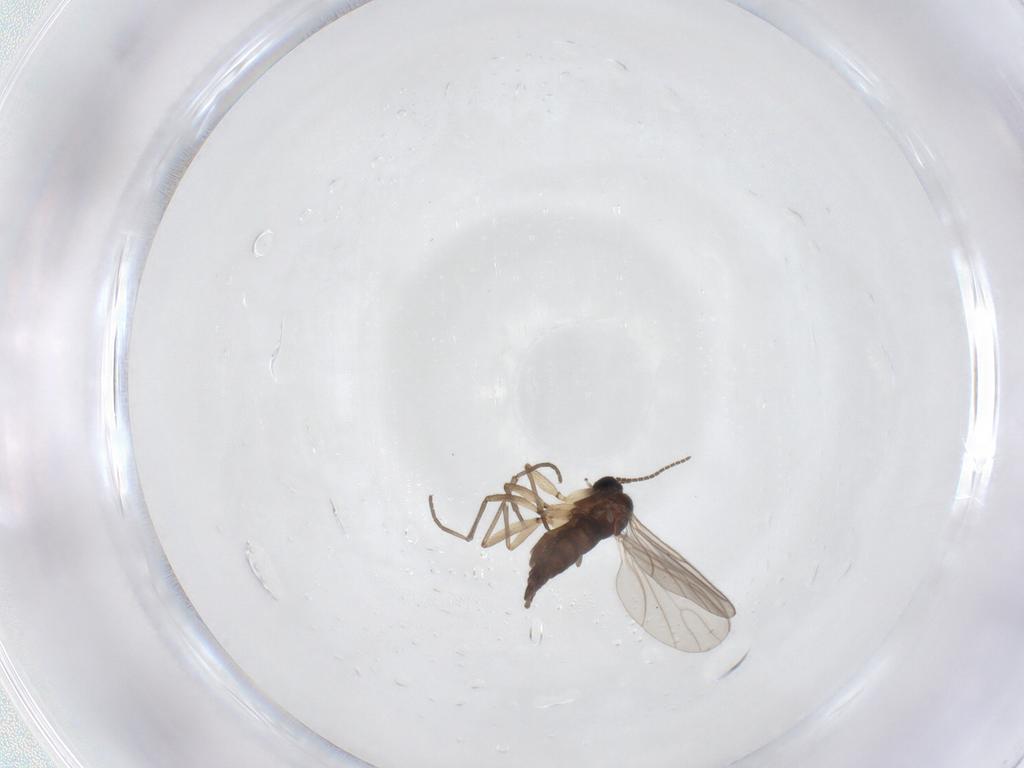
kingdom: Animalia
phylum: Arthropoda
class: Insecta
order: Diptera
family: Sciaridae
